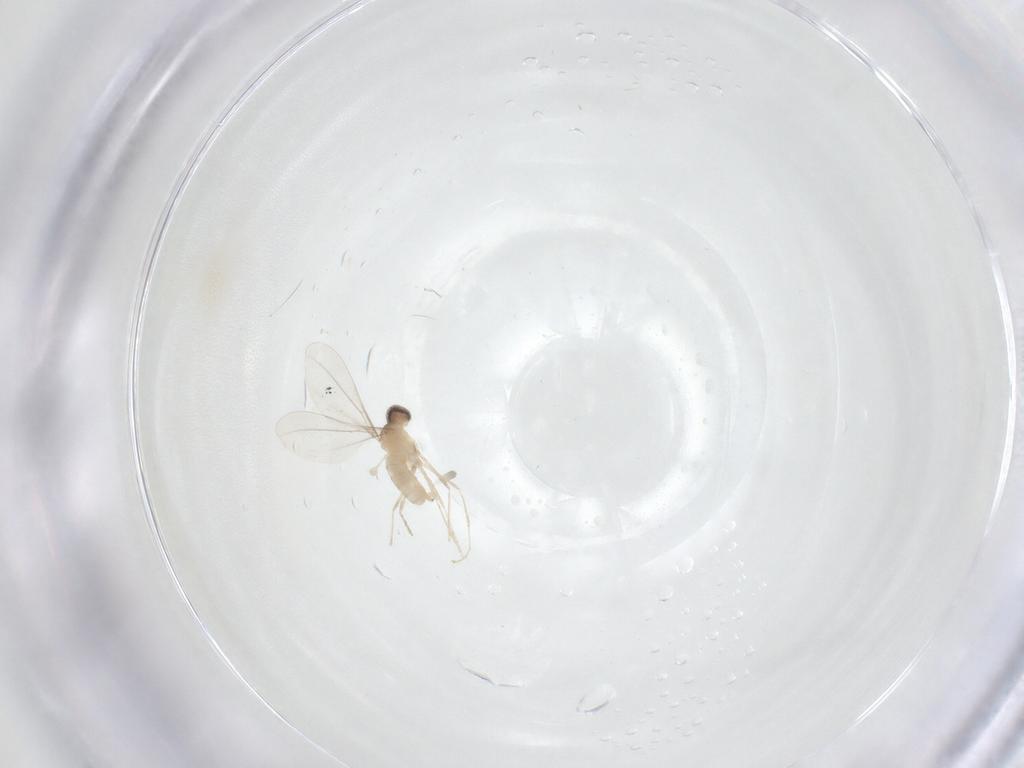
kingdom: Animalia
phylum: Arthropoda
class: Insecta
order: Diptera
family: Cecidomyiidae
